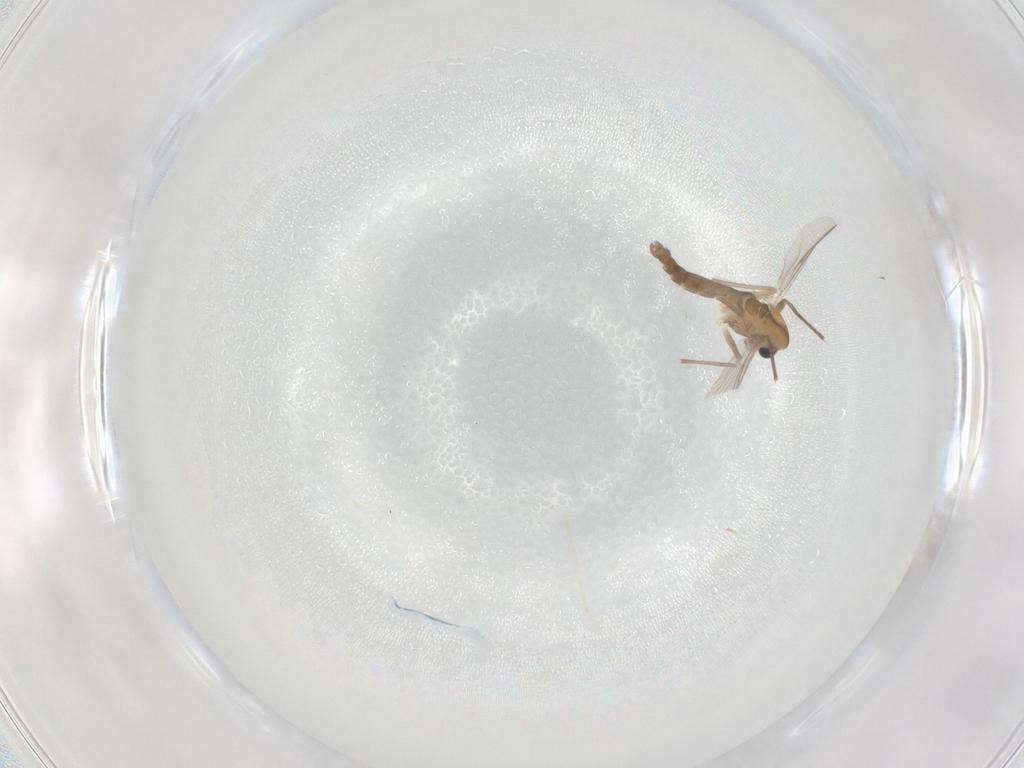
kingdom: Animalia
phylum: Arthropoda
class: Insecta
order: Diptera
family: Chironomidae
